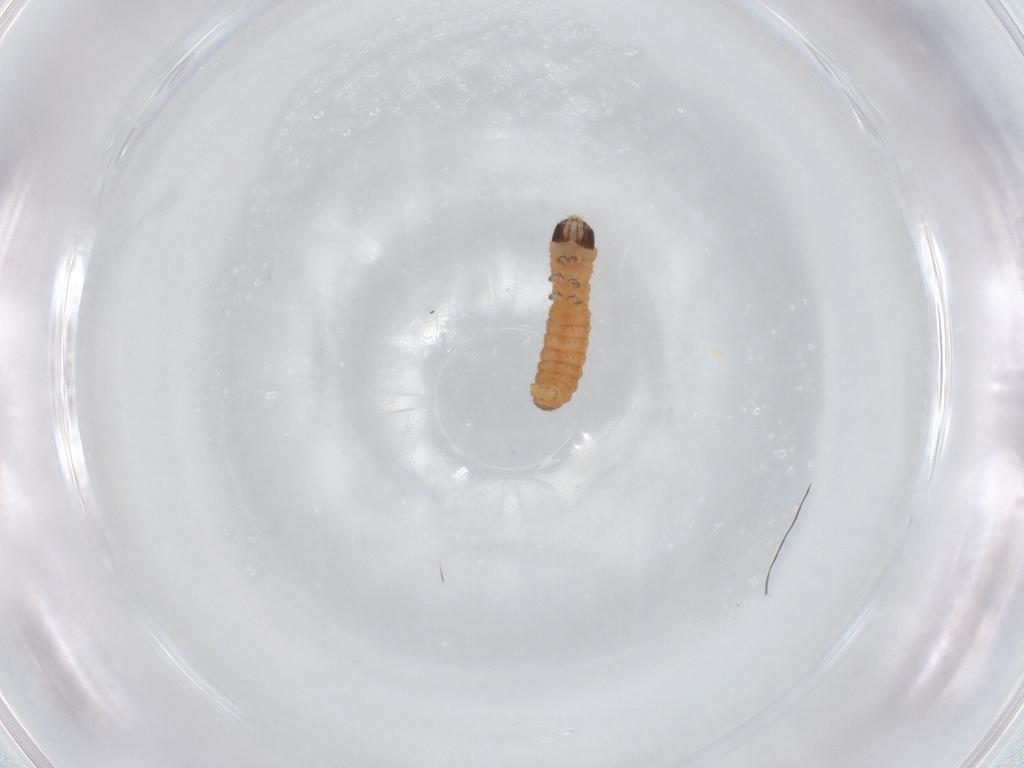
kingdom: Animalia
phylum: Arthropoda
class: Insecta
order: Lepidoptera
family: Tortricidae
